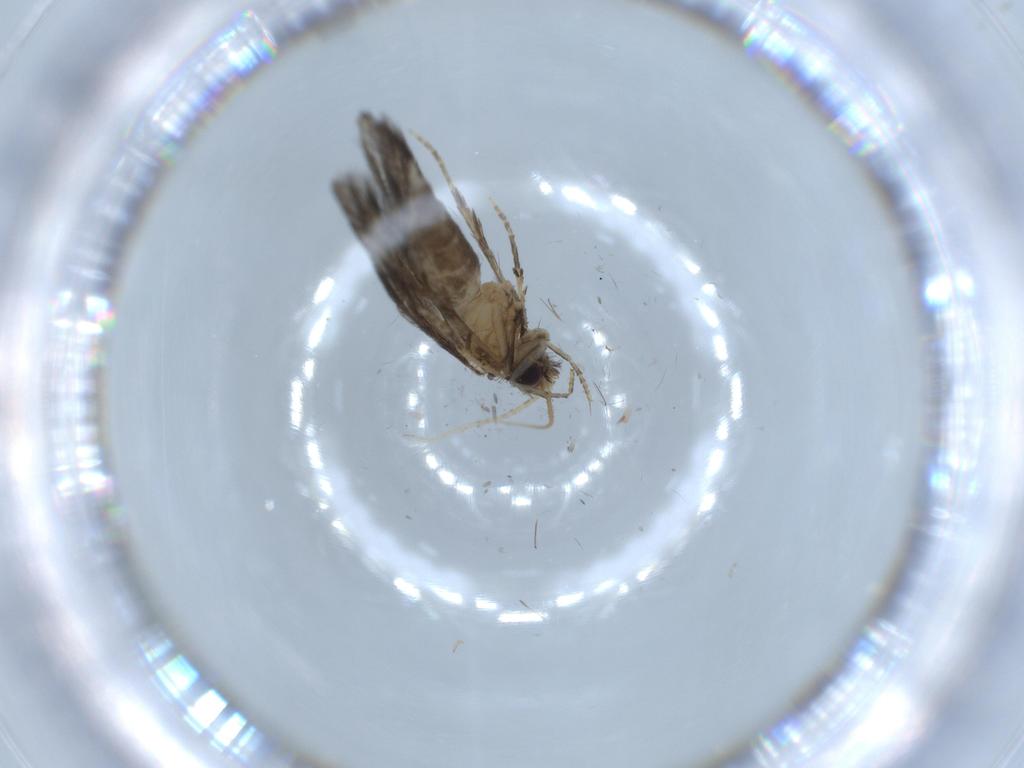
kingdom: Animalia
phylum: Arthropoda
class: Insecta
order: Trichoptera
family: Hydroptilidae
